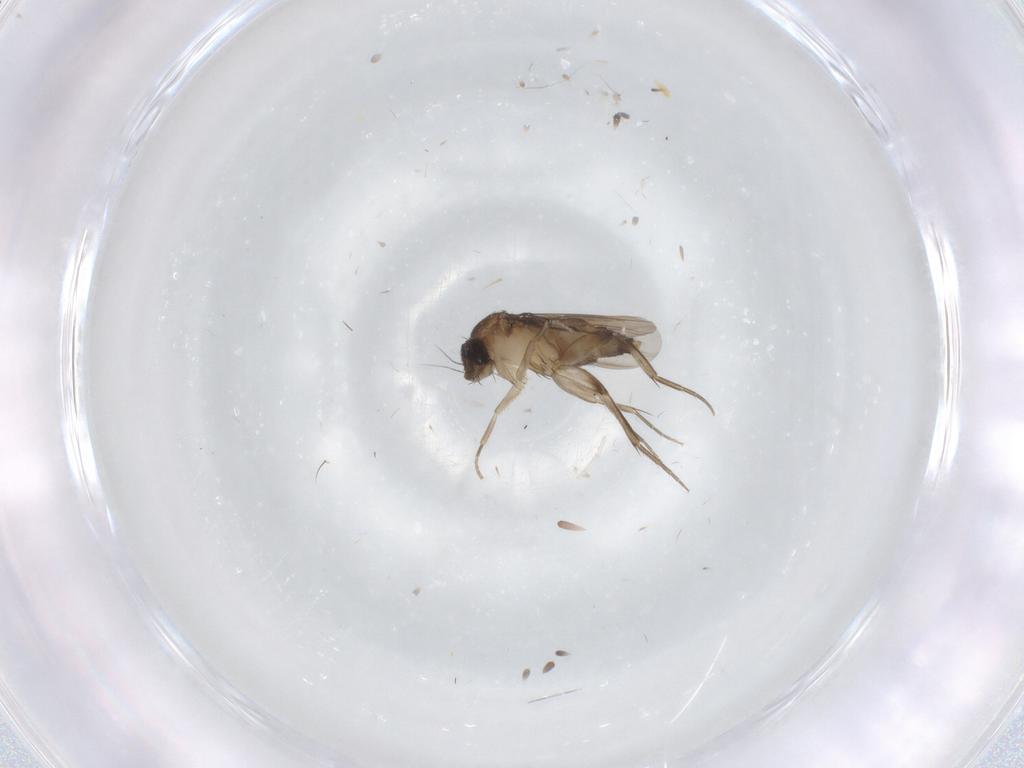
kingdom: Animalia
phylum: Arthropoda
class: Insecta
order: Diptera
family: Phoridae
